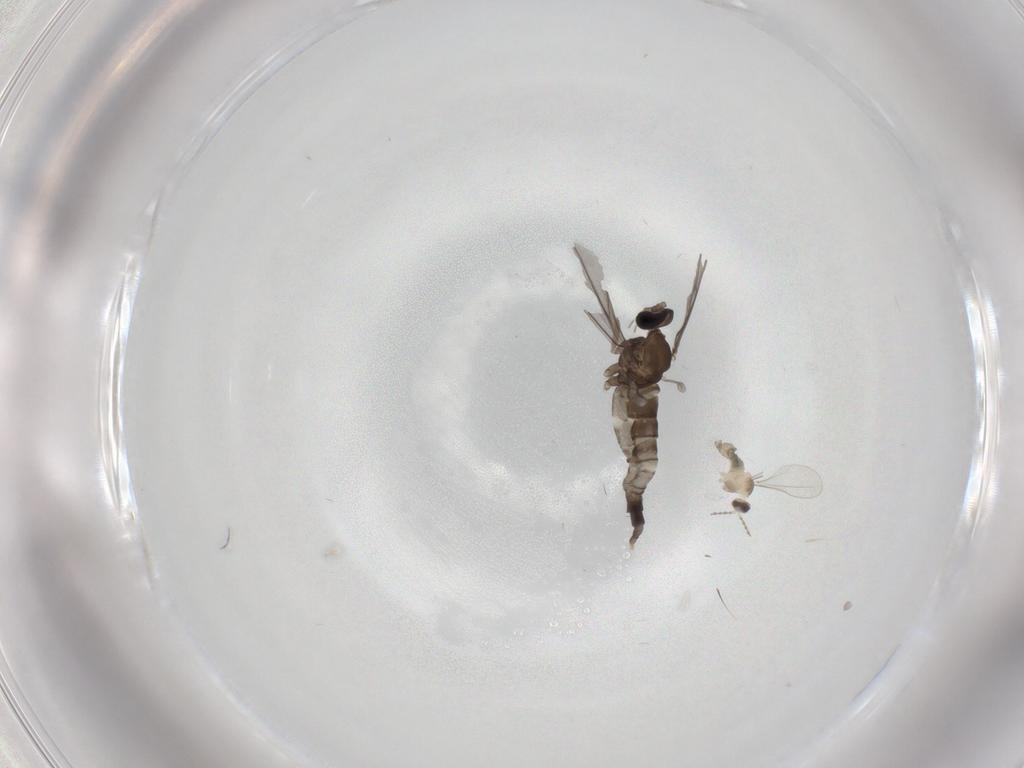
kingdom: Animalia
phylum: Arthropoda
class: Insecta
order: Diptera
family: Cecidomyiidae
